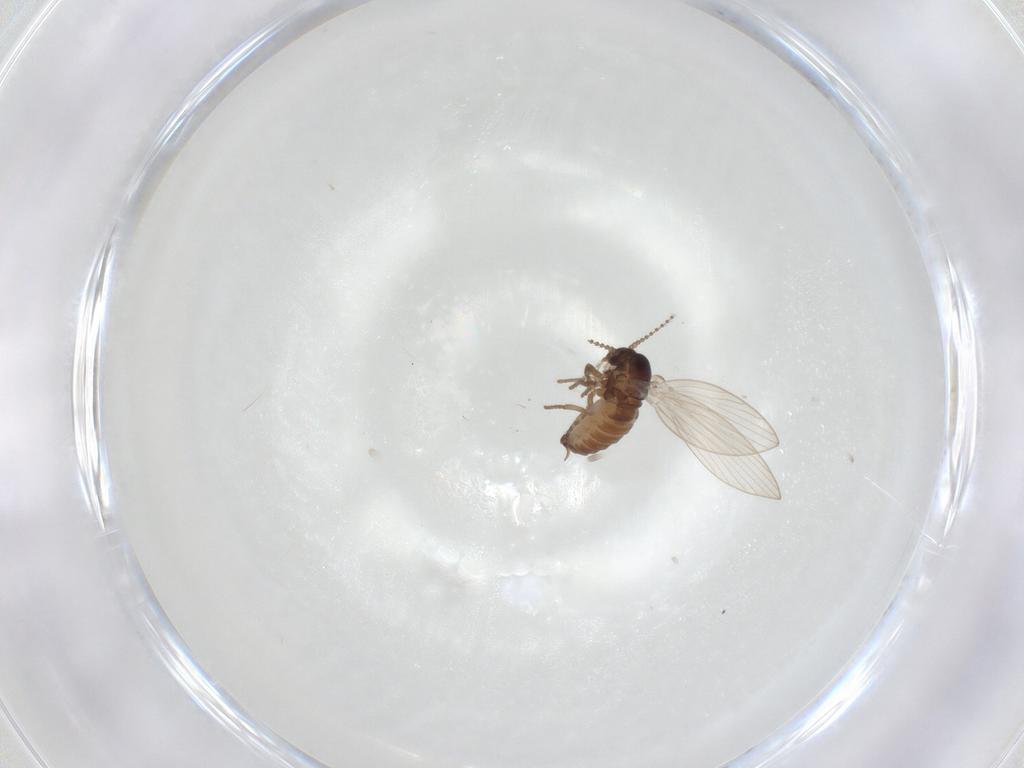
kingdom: Animalia
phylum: Arthropoda
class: Insecta
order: Diptera
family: Psychodidae
